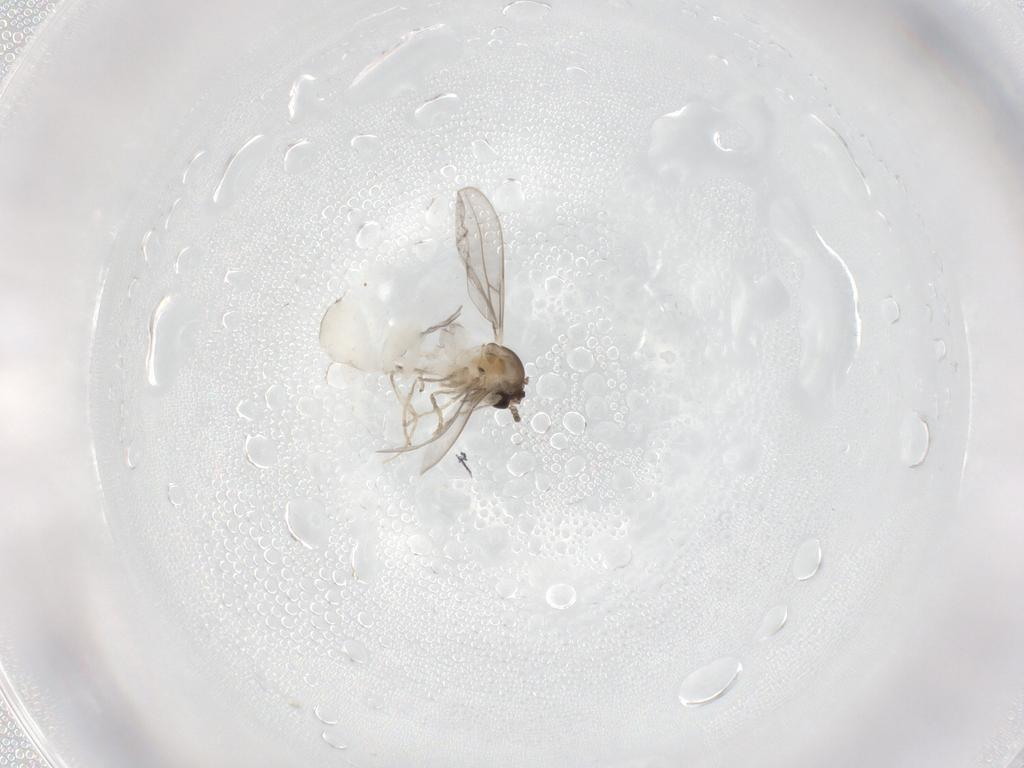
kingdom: Animalia
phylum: Arthropoda
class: Insecta
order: Diptera
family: Cecidomyiidae
